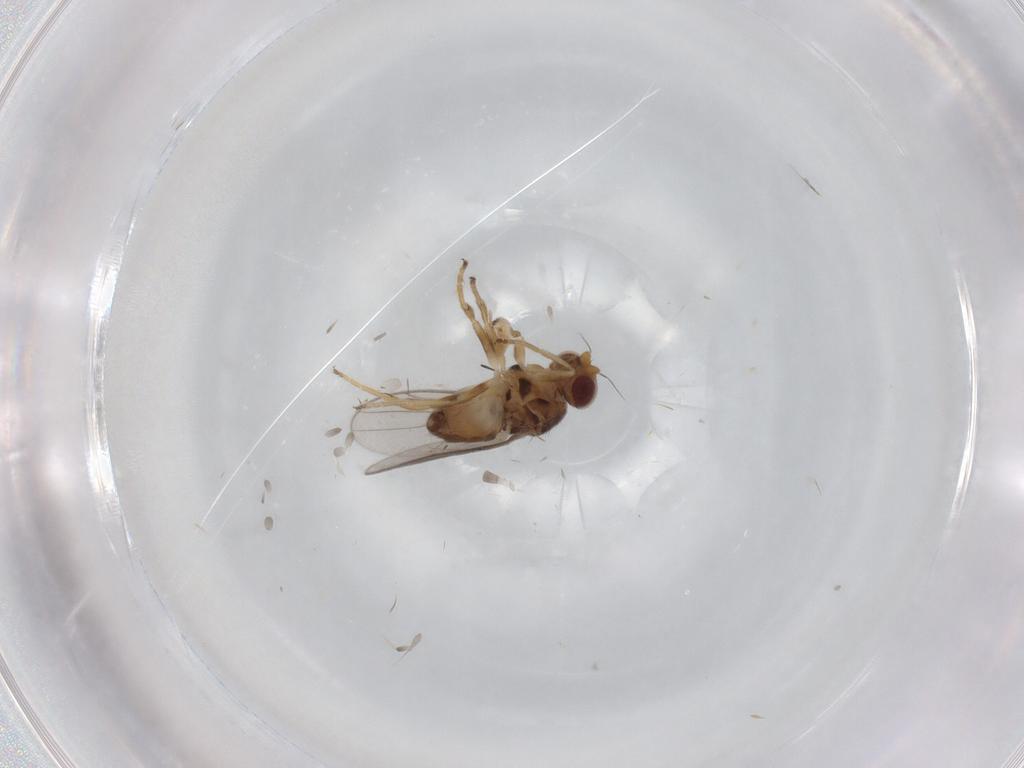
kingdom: Animalia
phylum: Arthropoda
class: Insecta
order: Diptera
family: Chloropidae
